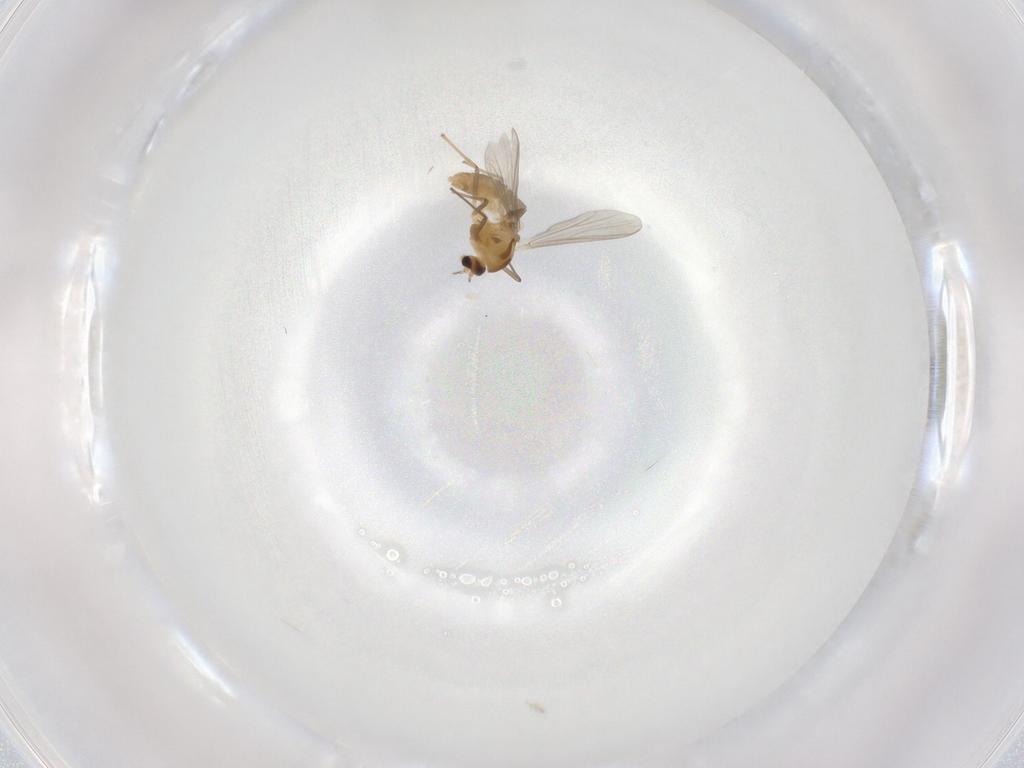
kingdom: Animalia
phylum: Arthropoda
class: Insecta
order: Diptera
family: Chironomidae
